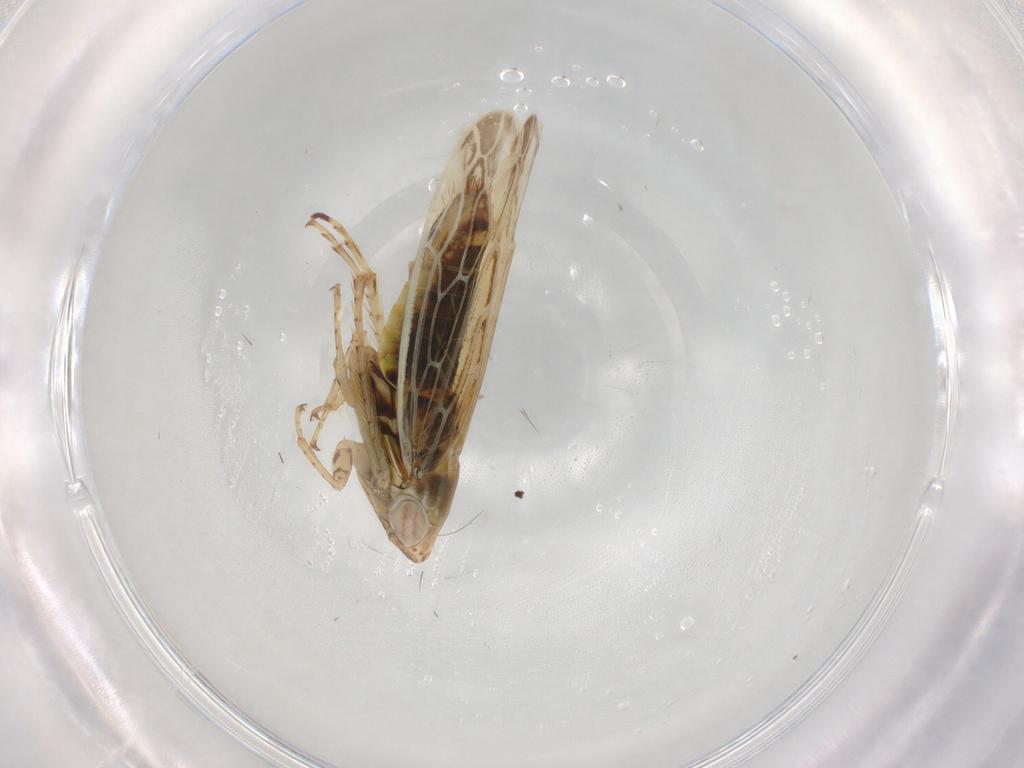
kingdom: Animalia
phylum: Arthropoda
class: Insecta
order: Hemiptera
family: Cicadellidae
